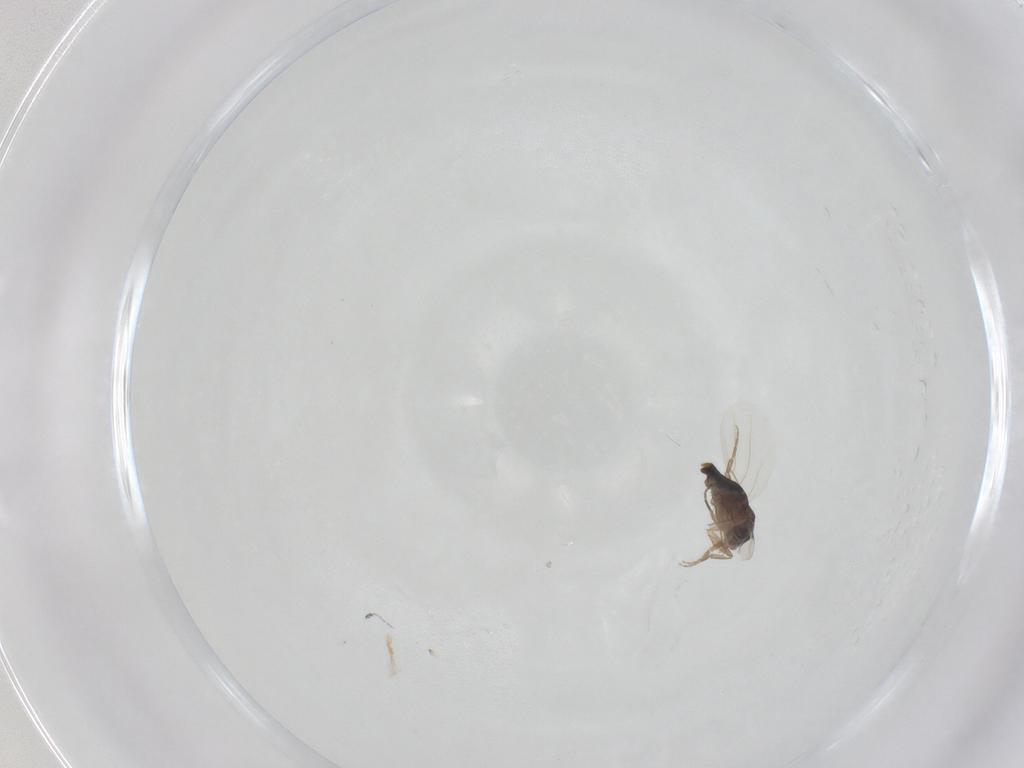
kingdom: Animalia
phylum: Arthropoda
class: Insecta
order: Diptera
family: Phoridae
